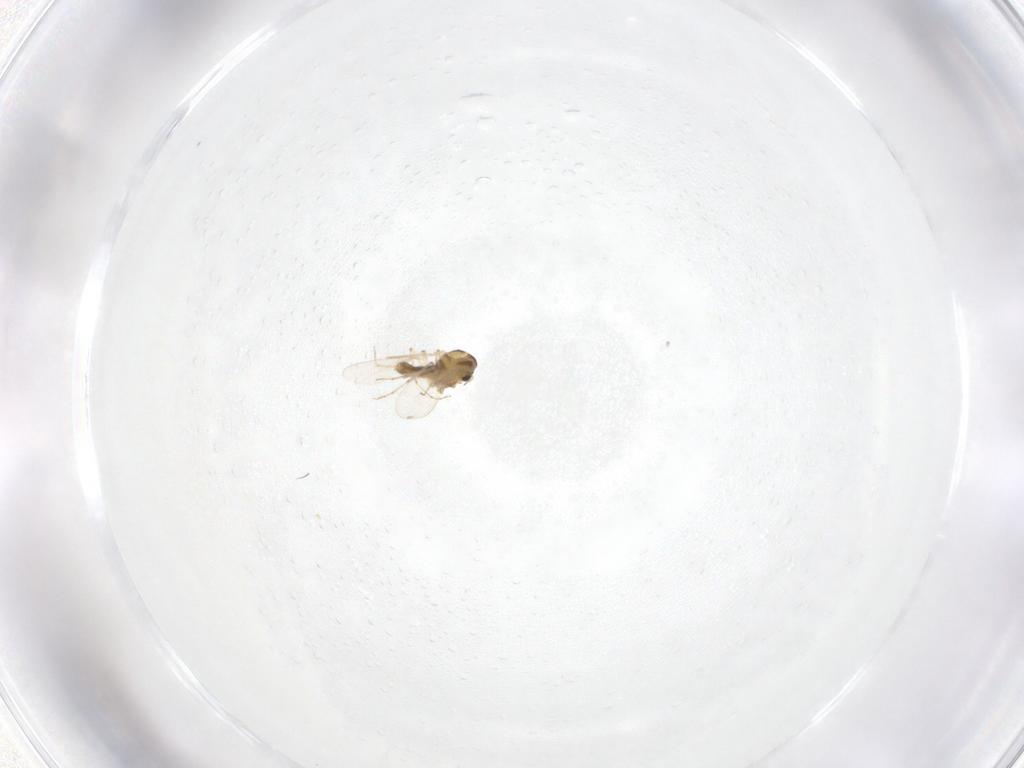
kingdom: Animalia
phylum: Arthropoda
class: Insecta
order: Diptera
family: Chironomidae
